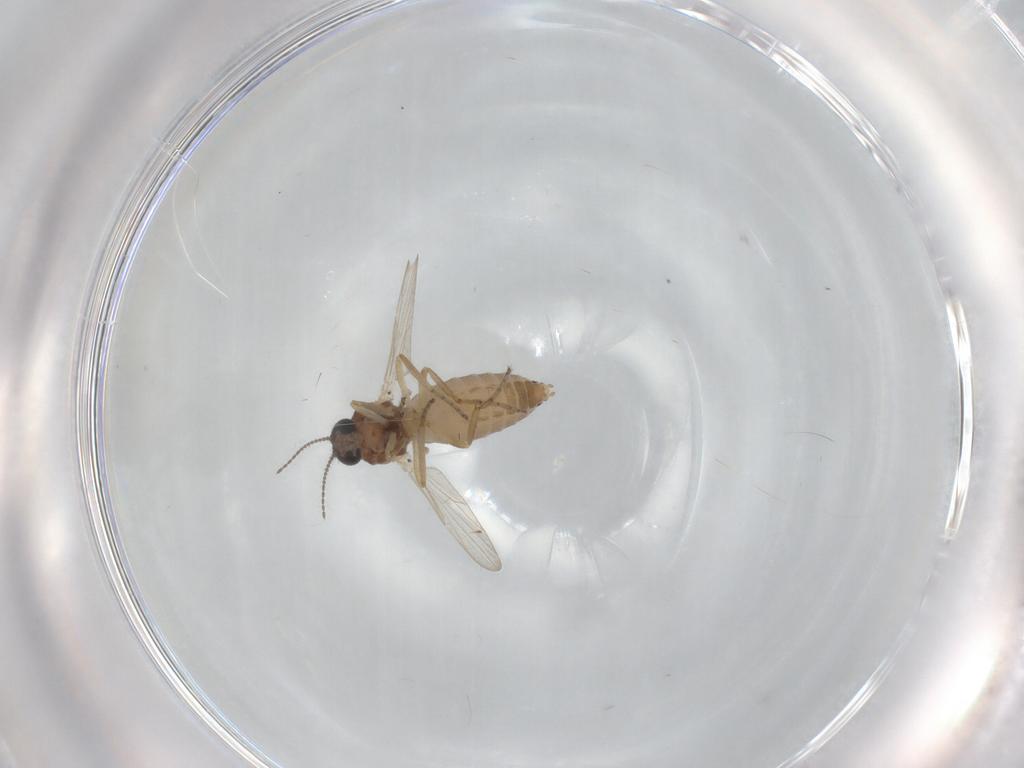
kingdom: Animalia
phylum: Arthropoda
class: Insecta
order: Diptera
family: Ceratopogonidae
